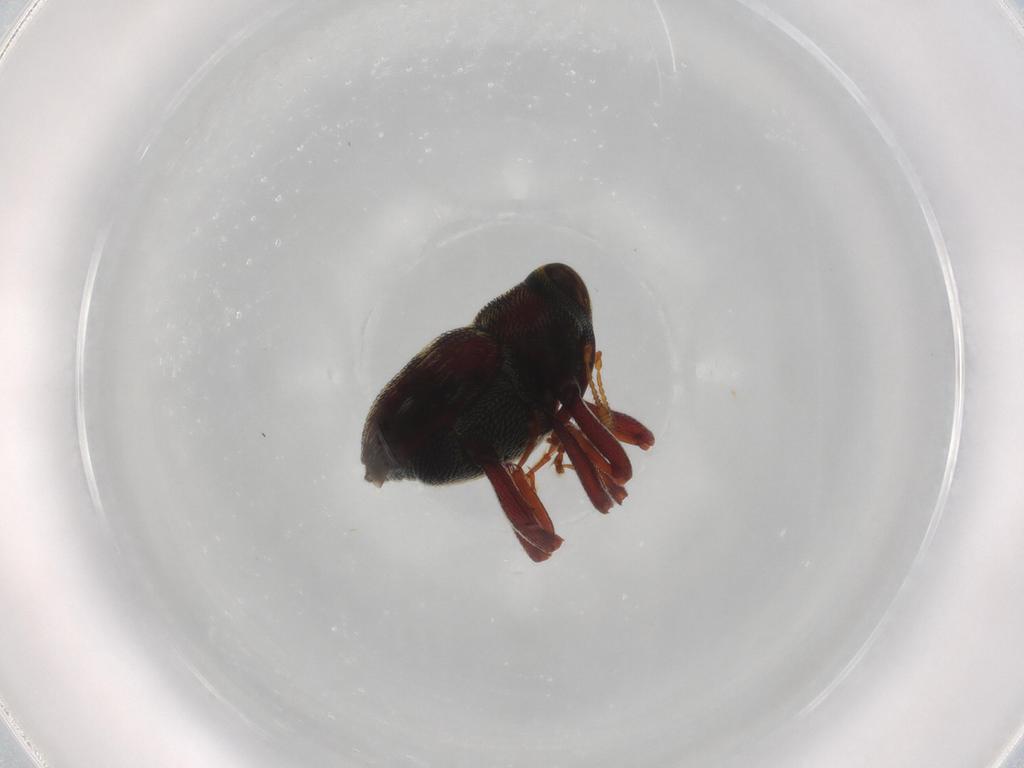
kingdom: Animalia
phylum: Arthropoda
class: Insecta
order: Coleoptera
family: Curculionidae
